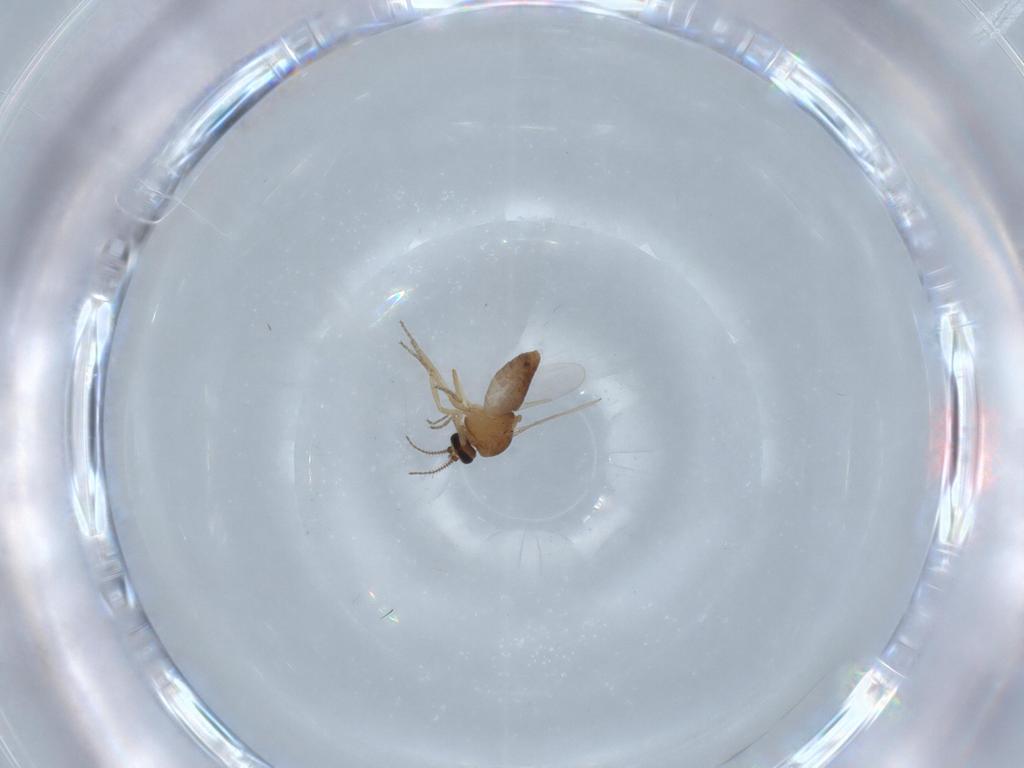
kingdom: Animalia
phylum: Arthropoda
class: Insecta
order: Diptera
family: Ceratopogonidae
